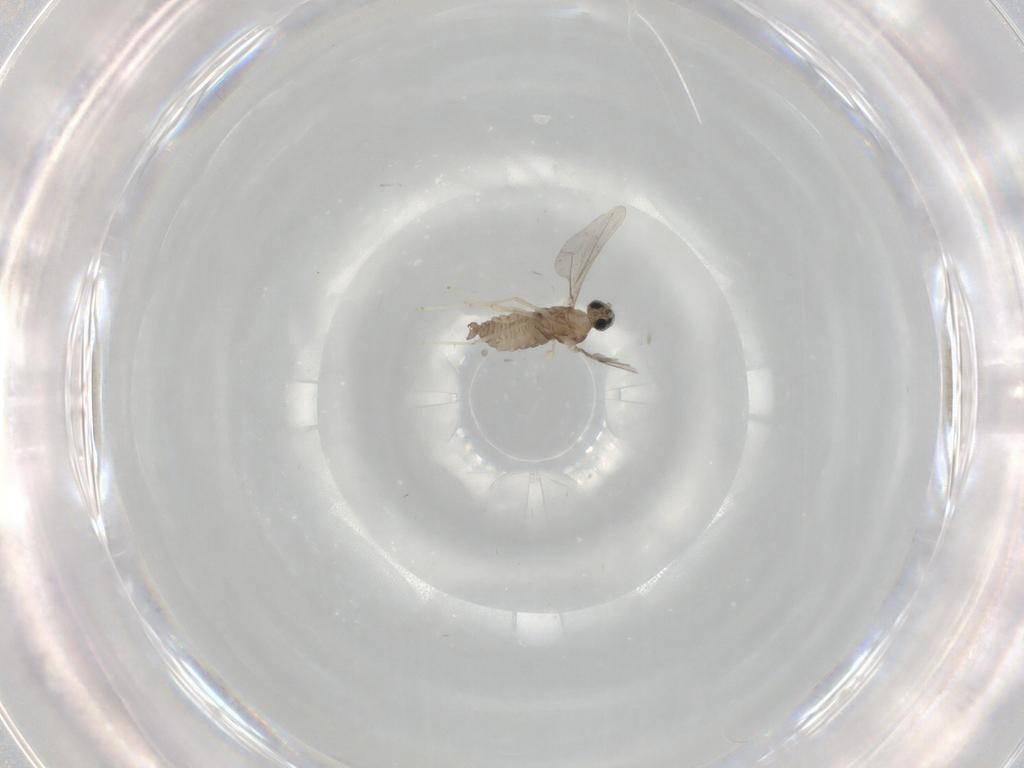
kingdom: Animalia
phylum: Arthropoda
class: Insecta
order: Diptera
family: Cecidomyiidae
